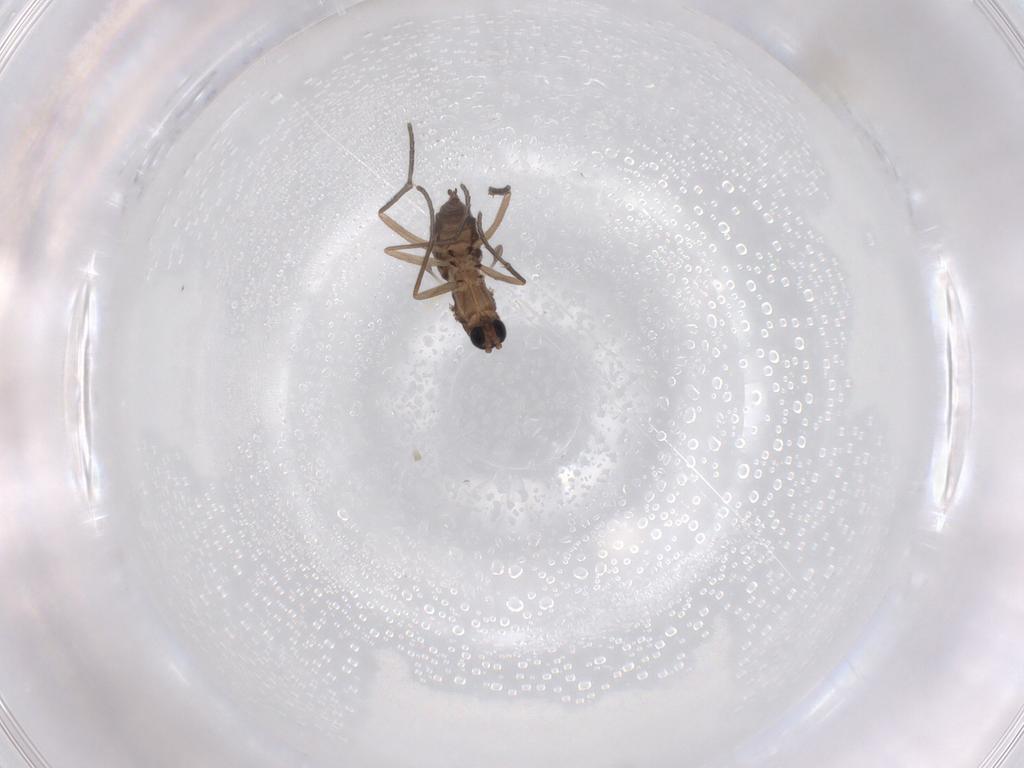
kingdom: Animalia
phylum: Arthropoda
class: Insecta
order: Diptera
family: Sciaridae
